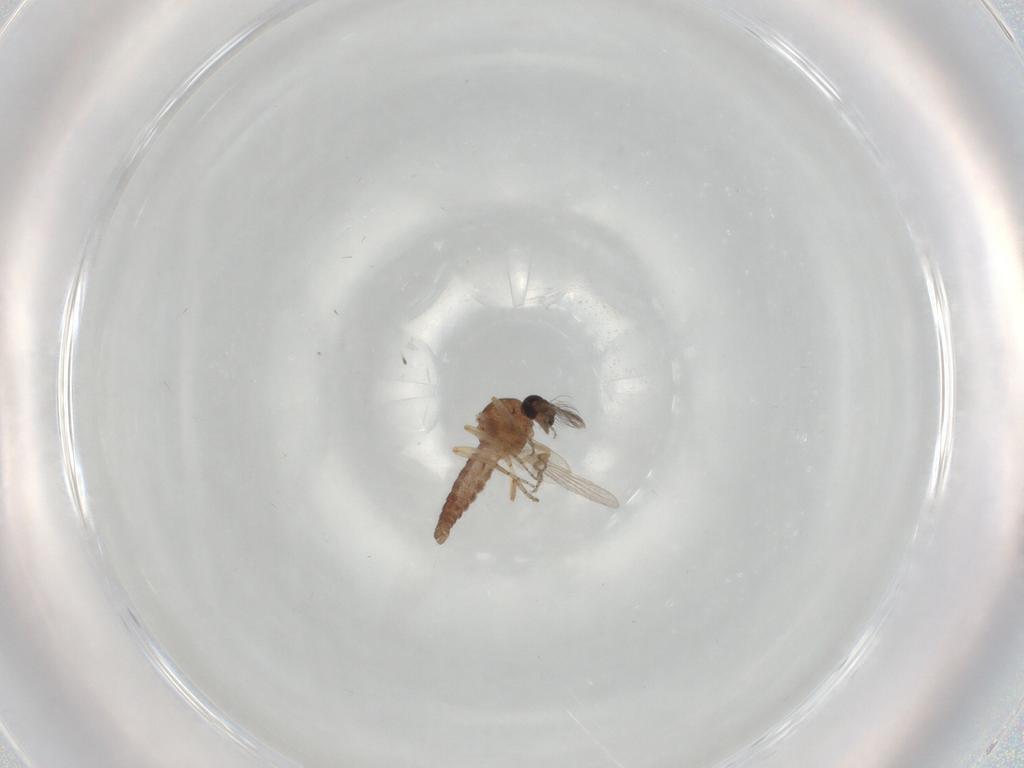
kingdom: Animalia
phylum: Arthropoda
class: Insecta
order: Diptera
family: Ceratopogonidae
